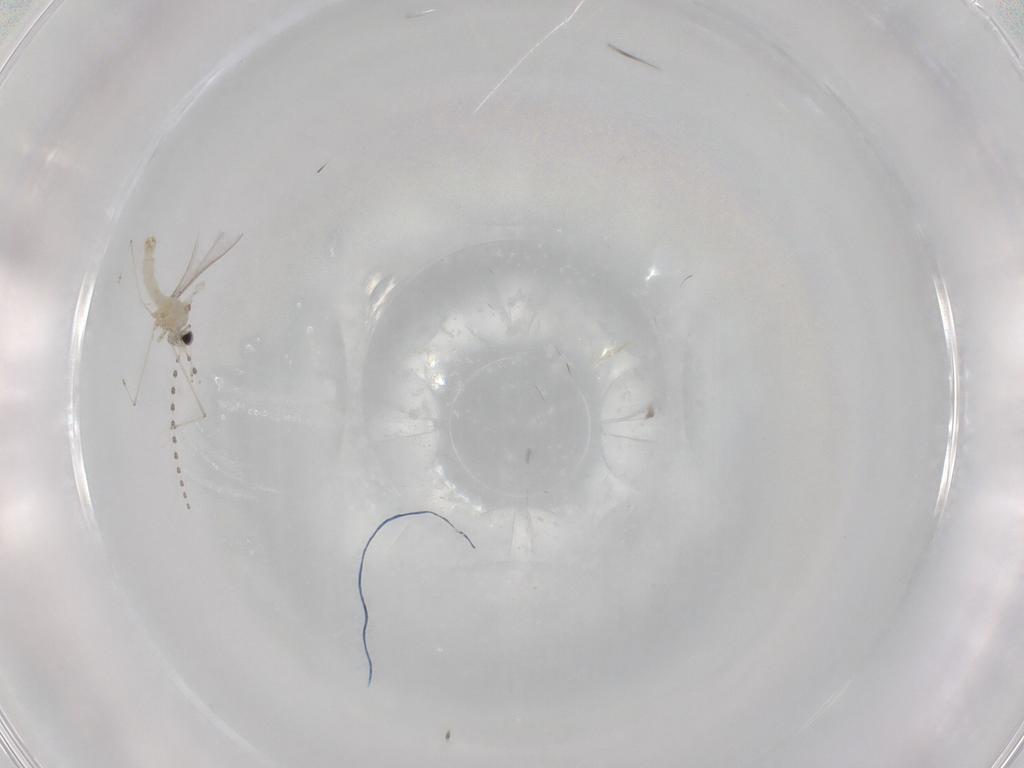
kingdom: Animalia
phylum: Arthropoda
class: Insecta
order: Diptera
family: Cecidomyiidae
